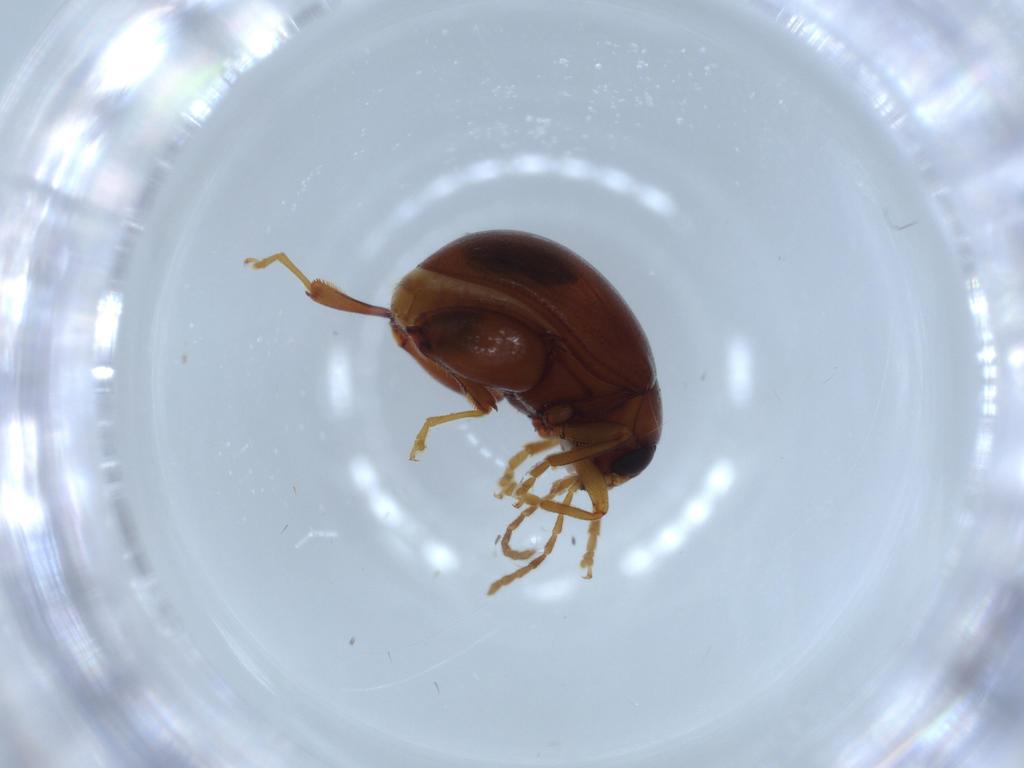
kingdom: Animalia
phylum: Arthropoda
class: Insecta
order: Coleoptera
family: Chrysomelidae
